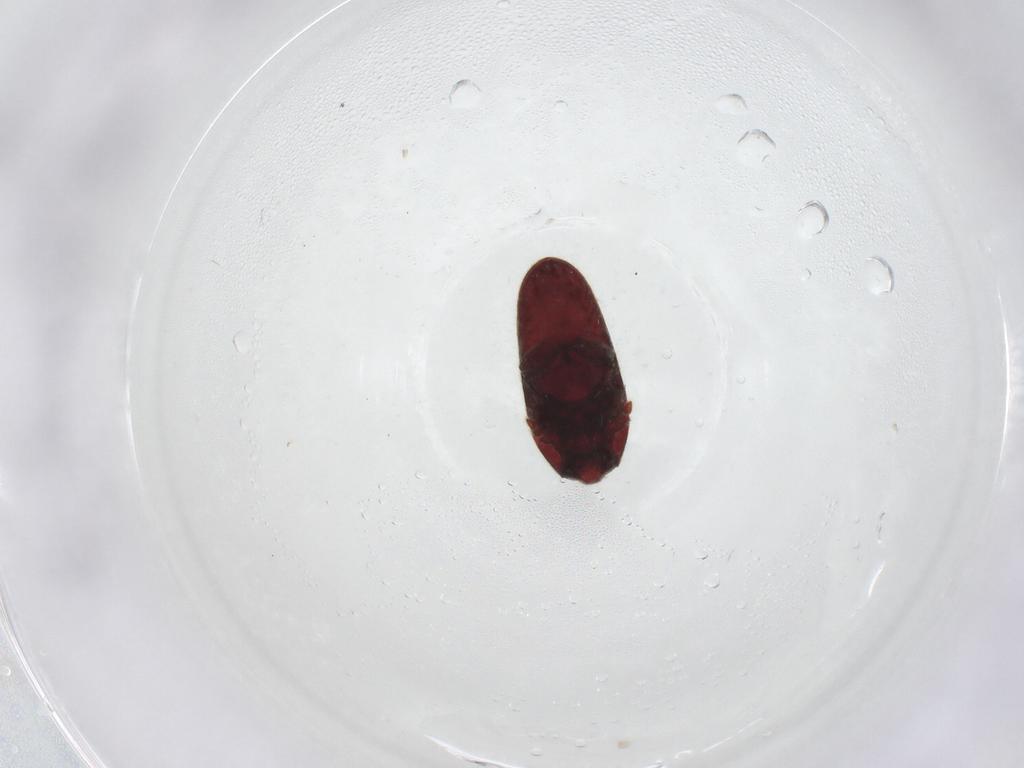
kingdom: Animalia
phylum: Arthropoda
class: Insecta
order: Coleoptera
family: Throscidae
